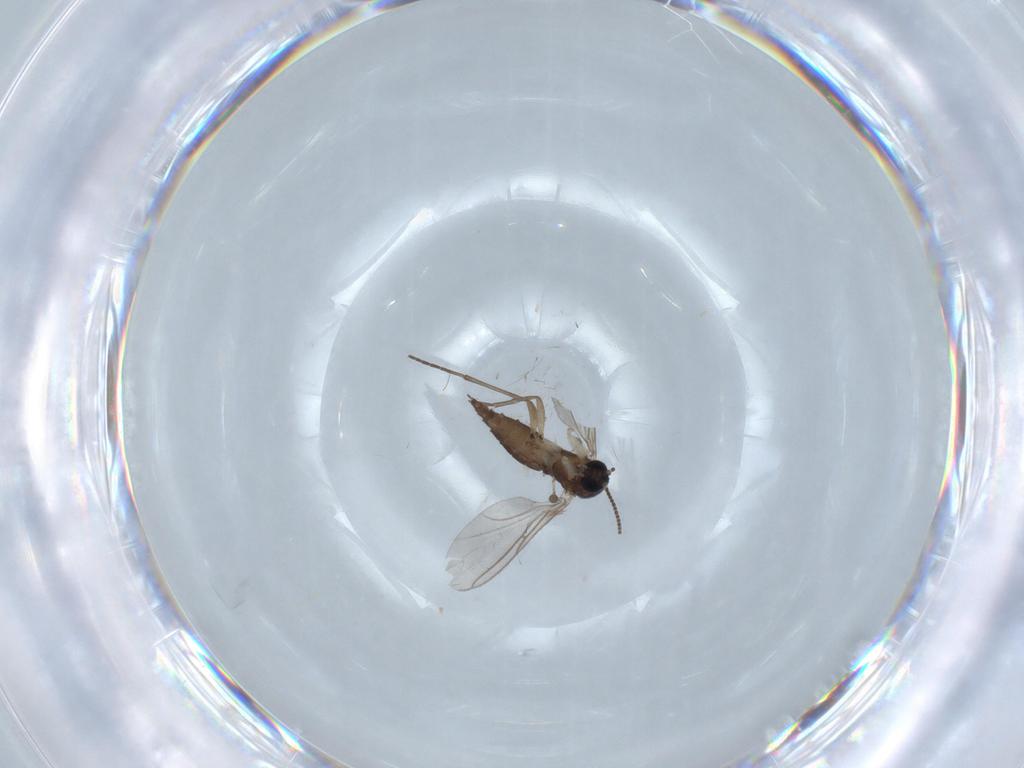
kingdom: Animalia
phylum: Arthropoda
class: Insecta
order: Diptera
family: Sciaridae
